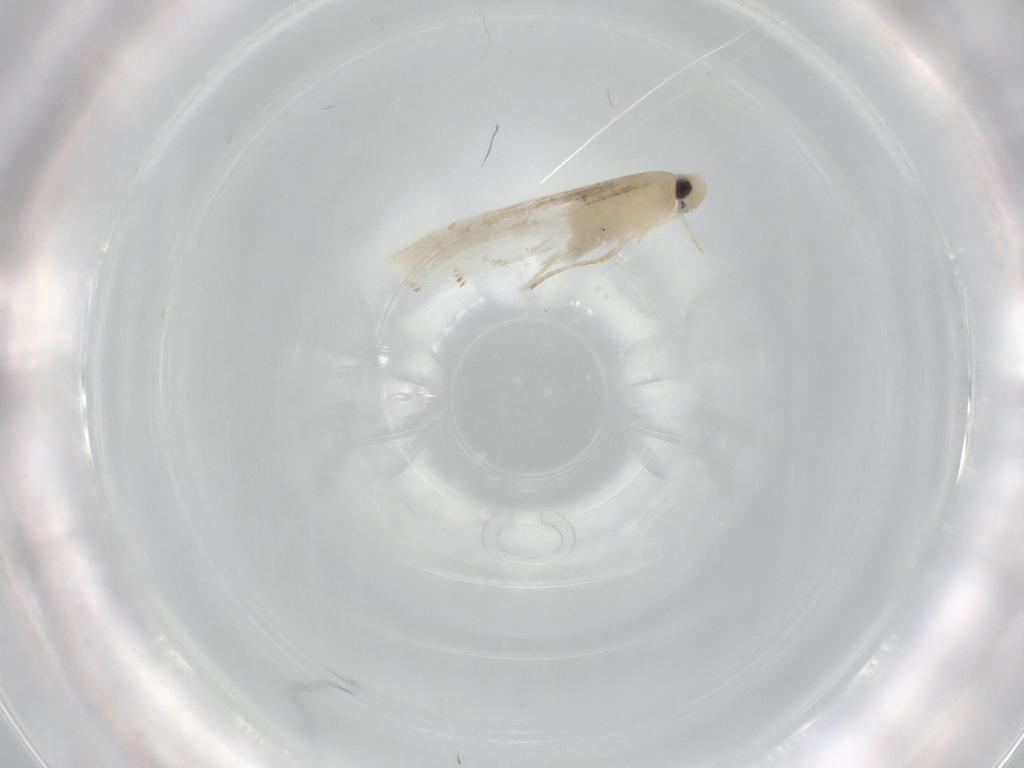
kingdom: Animalia
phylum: Arthropoda
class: Insecta
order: Lepidoptera
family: Gracillariidae
